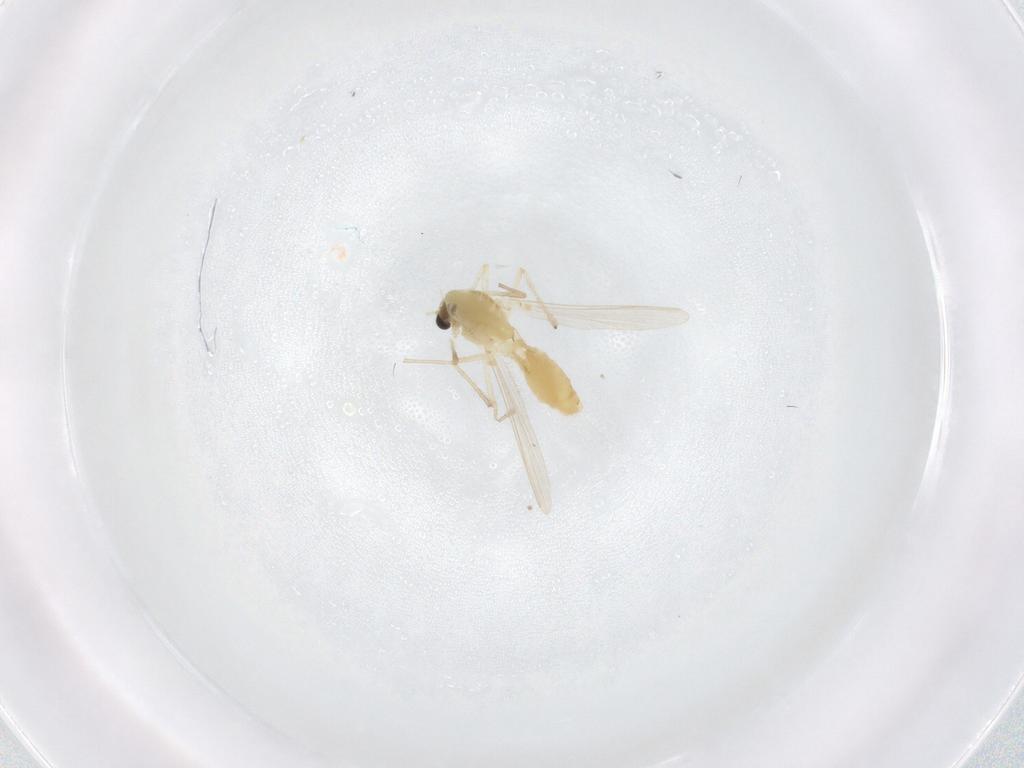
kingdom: Animalia
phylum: Arthropoda
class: Insecta
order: Diptera
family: Chironomidae
